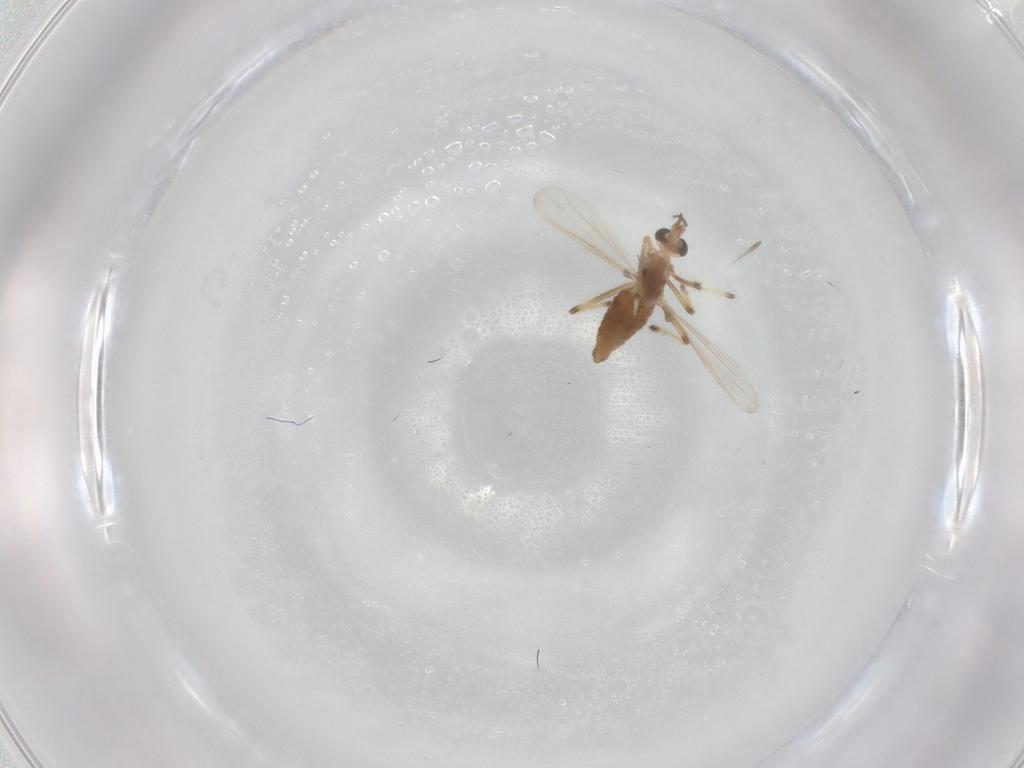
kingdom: Animalia
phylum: Arthropoda
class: Insecta
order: Diptera
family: Chironomidae
